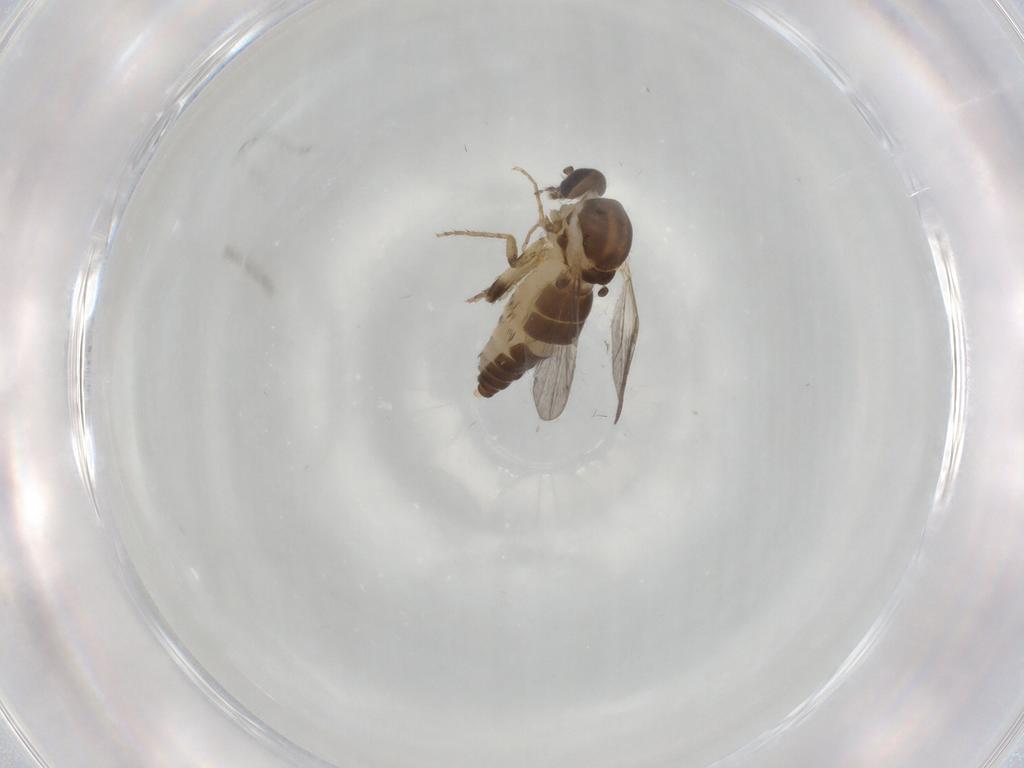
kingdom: Animalia
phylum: Arthropoda
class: Insecta
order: Diptera
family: Ceratopogonidae
